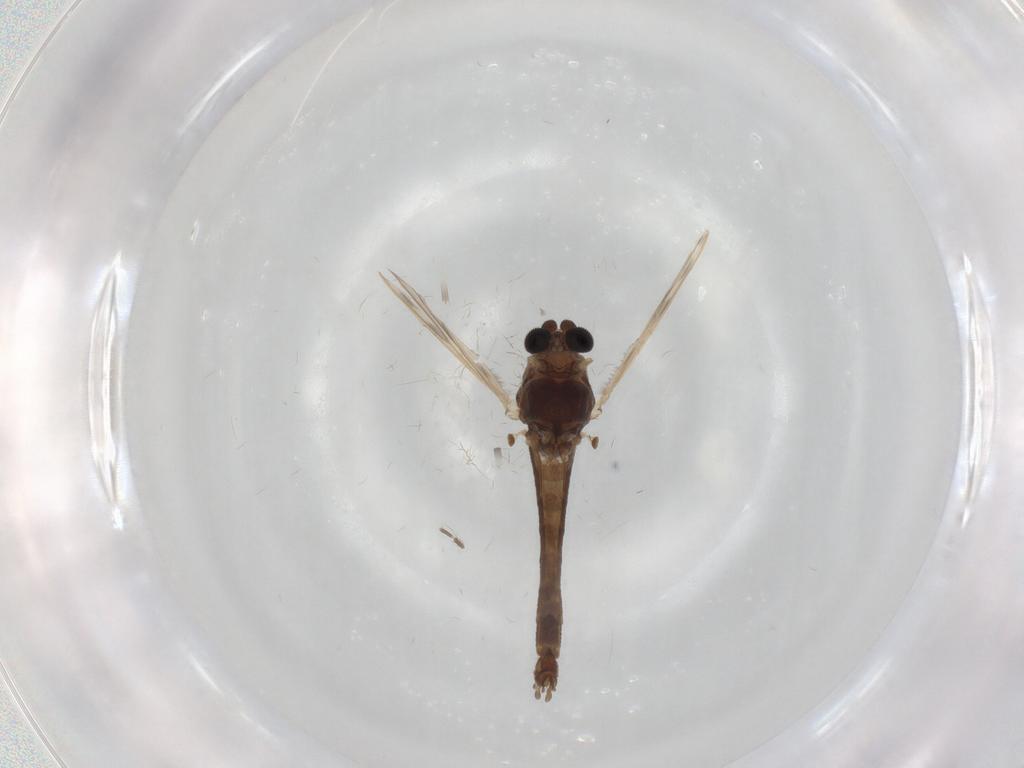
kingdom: Animalia
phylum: Arthropoda
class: Insecta
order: Diptera
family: Chironomidae
